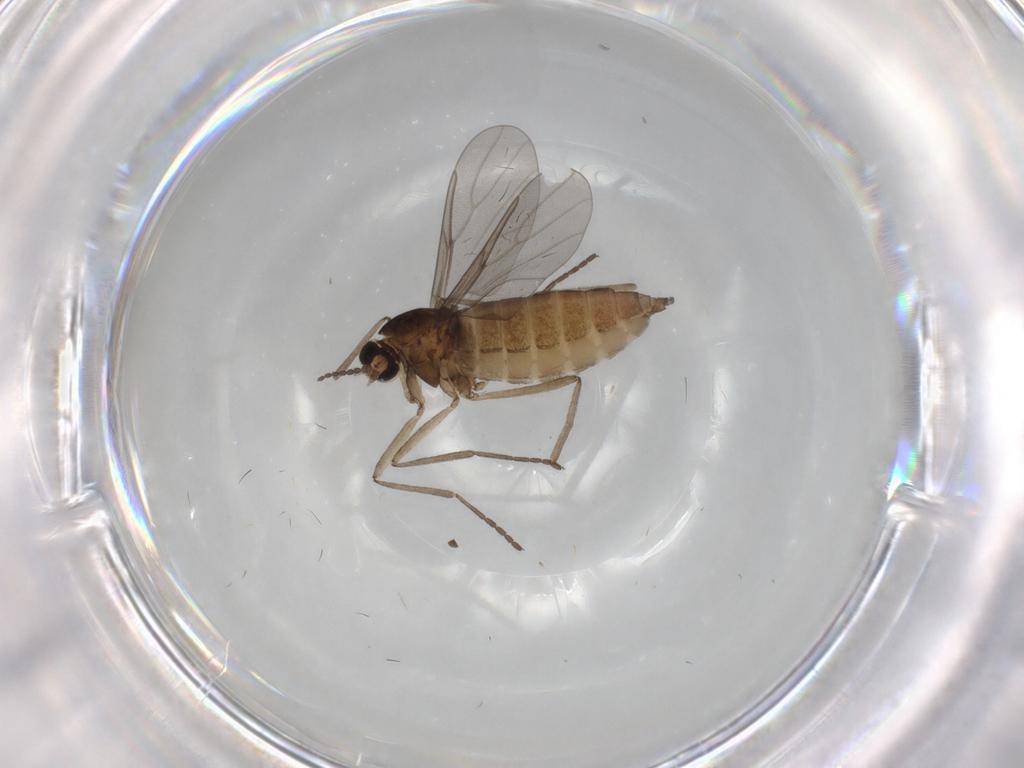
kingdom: Animalia
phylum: Arthropoda
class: Insecta
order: Diptera
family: Cecidomyiidae
